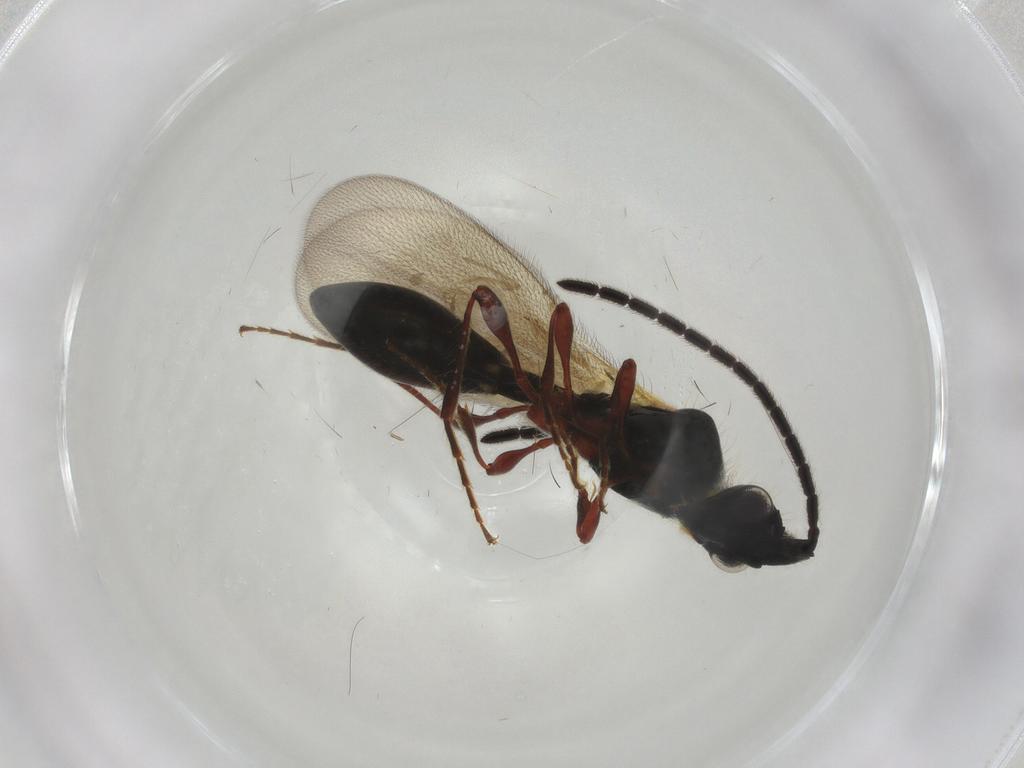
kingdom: Animalia
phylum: Arthropoda
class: Insecta
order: Hymenoptera
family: Diapriidae
